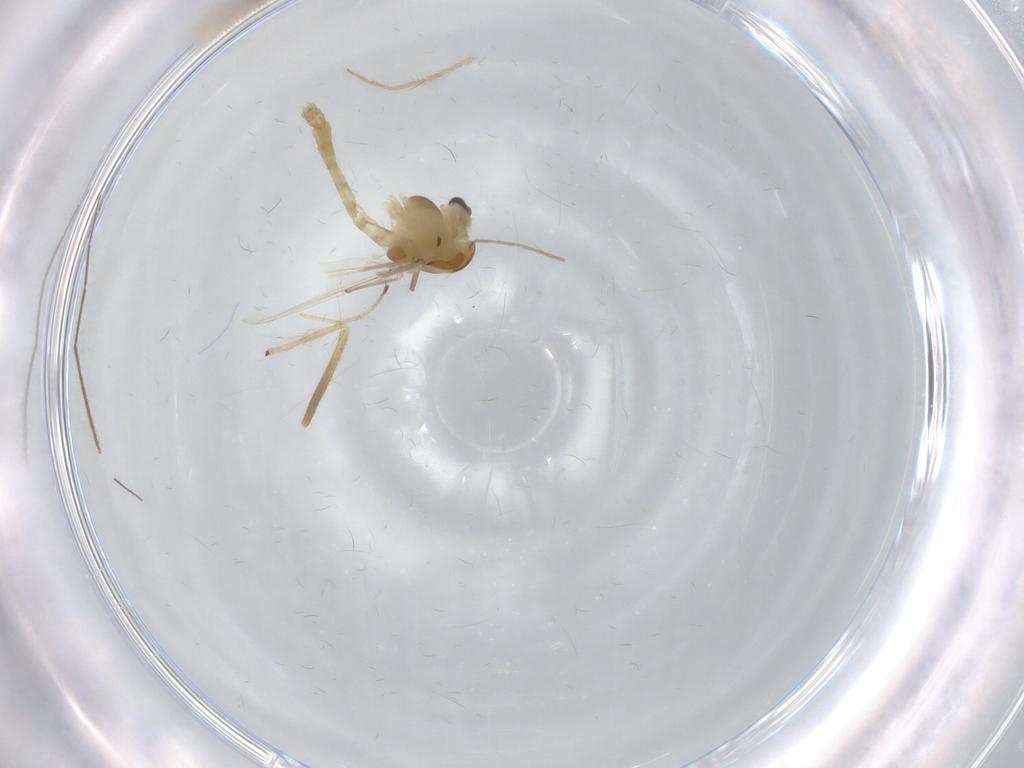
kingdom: Animalia
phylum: Arthropoda
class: Insecta
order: Diptera
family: Chironomidae
